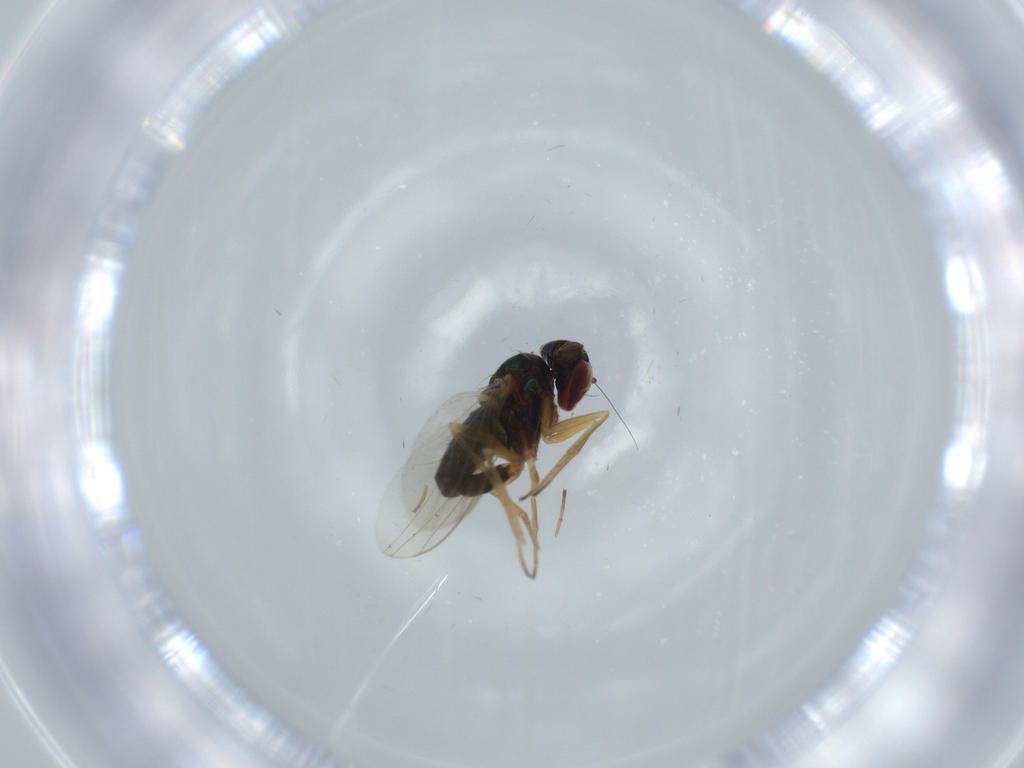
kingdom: Animalia
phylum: Arthropoda
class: Insecta
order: Diptera
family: Dolichopodidae
